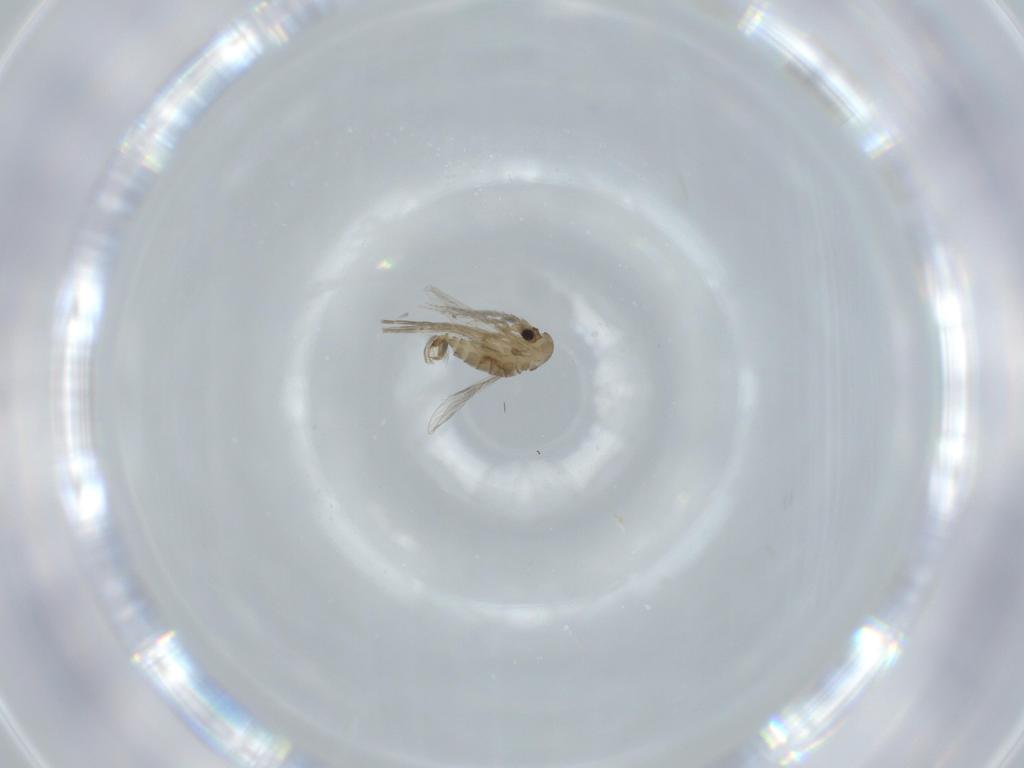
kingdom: Animalia
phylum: Arthropoda
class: Insecta
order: Diptera
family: Psychodidae
